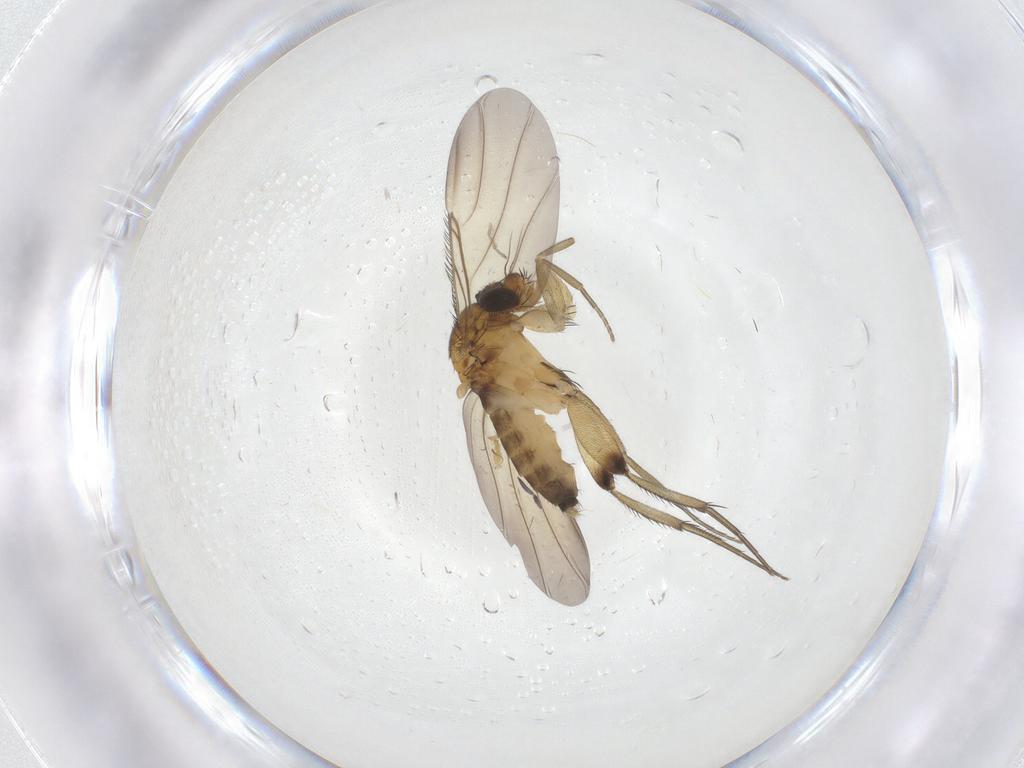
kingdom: Animalia
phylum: Arthropoda
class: Insecta
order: Diptera
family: Phoridae
